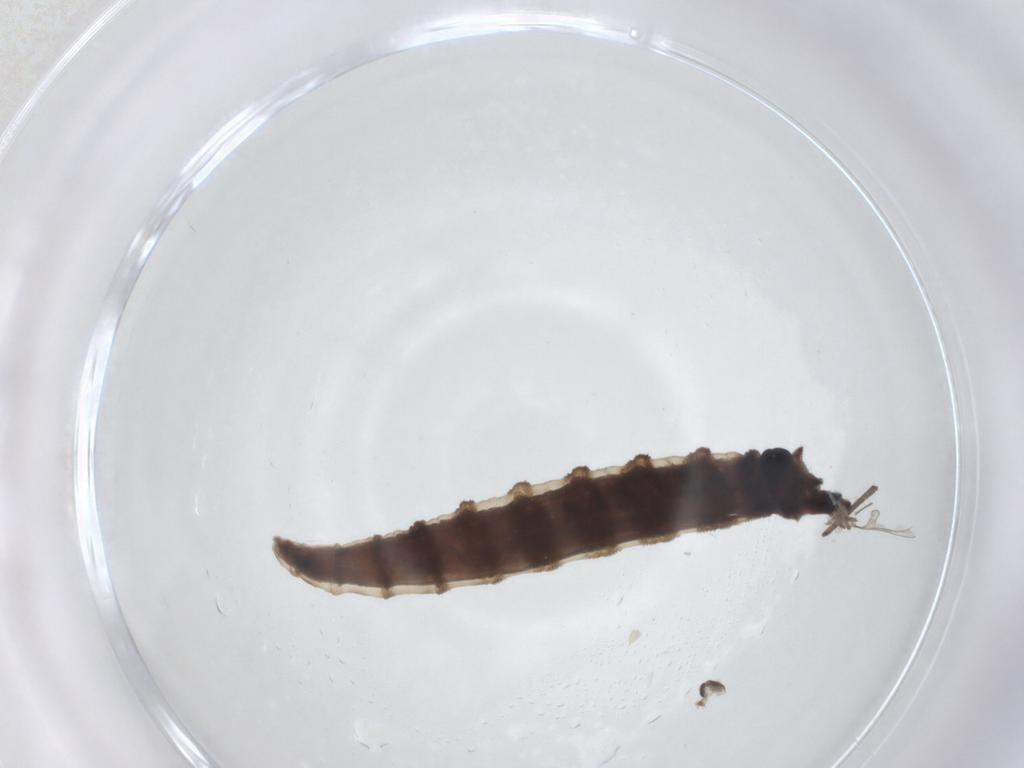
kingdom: Animalia
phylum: Arthropoda
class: Insecta
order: Diptera
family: Drosophilidae
